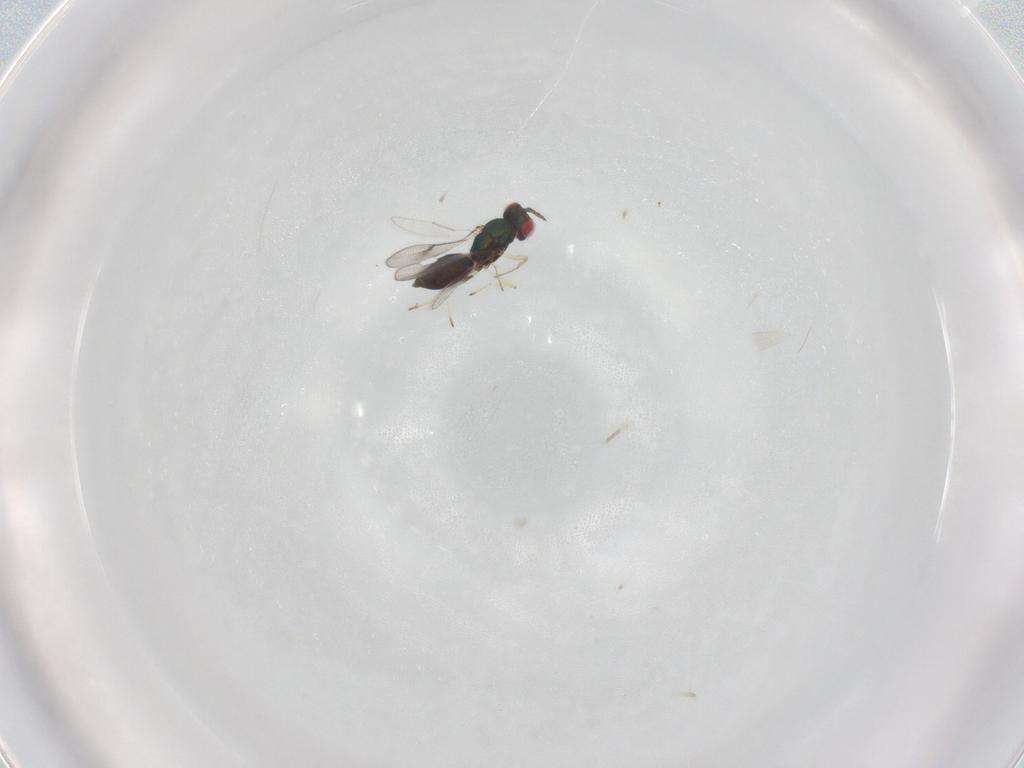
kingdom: Animalia
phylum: Arthropoda
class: Insecta
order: Hymenoptera
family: Eulophidae
